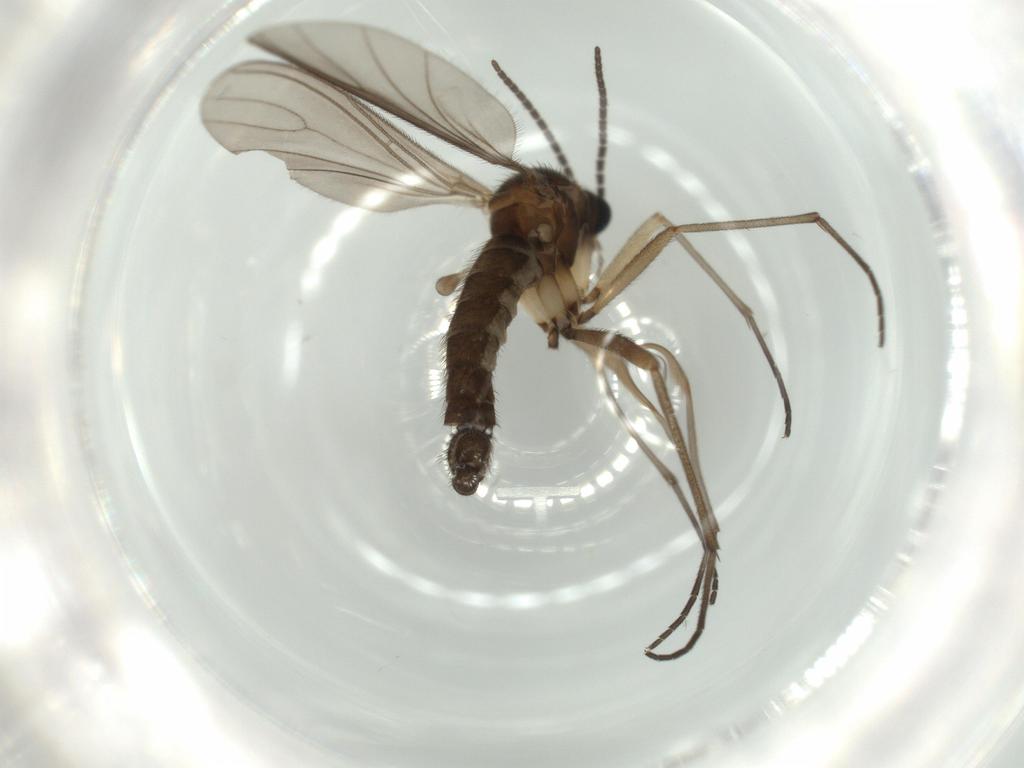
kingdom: Animalia
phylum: Arthropoda
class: Insecta
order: Diptera
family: Sciaridae
